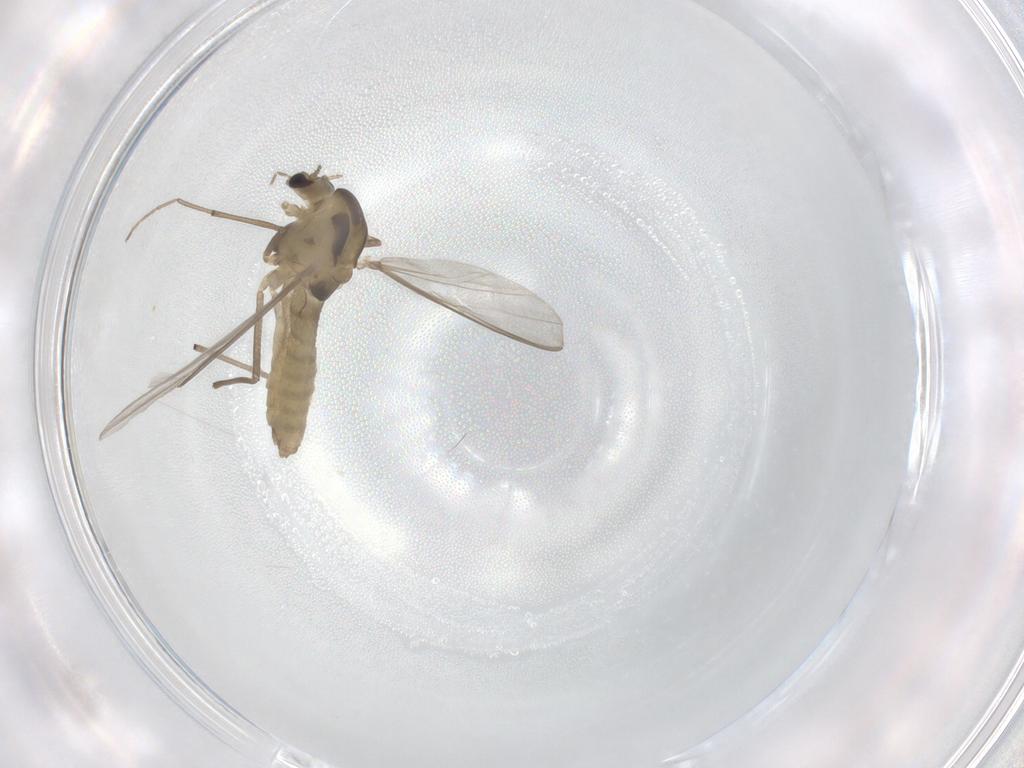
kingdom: Animalia
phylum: Arthropoda
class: Insecta
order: Diptera
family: Chironomidae
